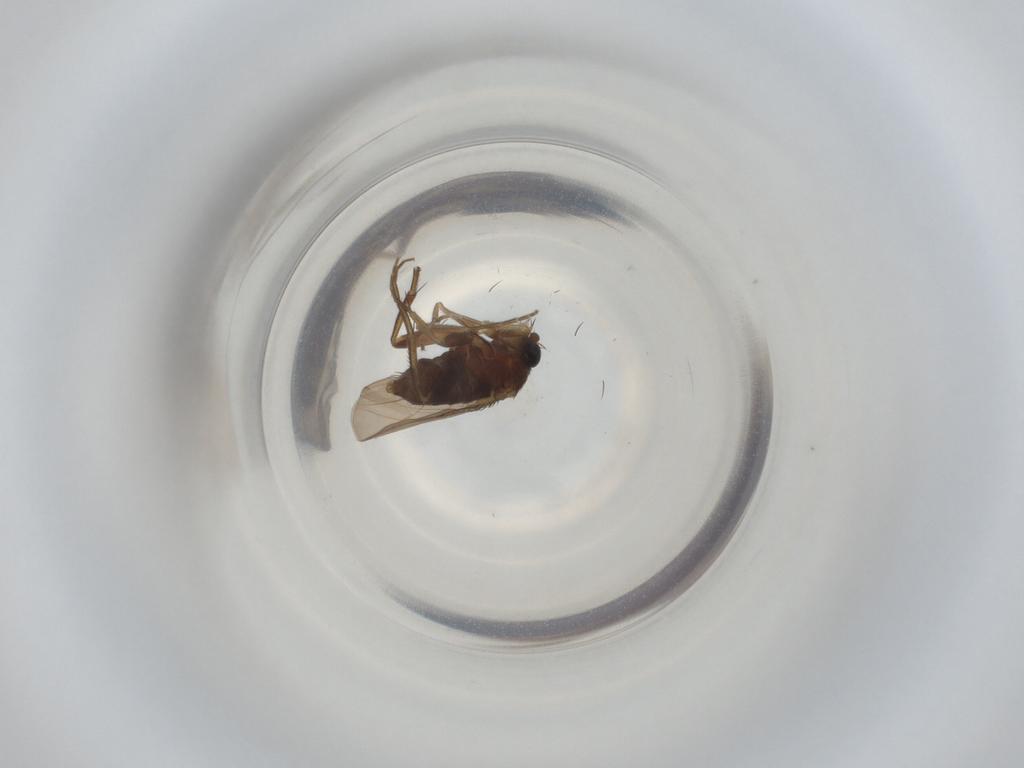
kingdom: Animalia
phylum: Arthropoda
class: Insecta
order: Diptera
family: Phoridae
